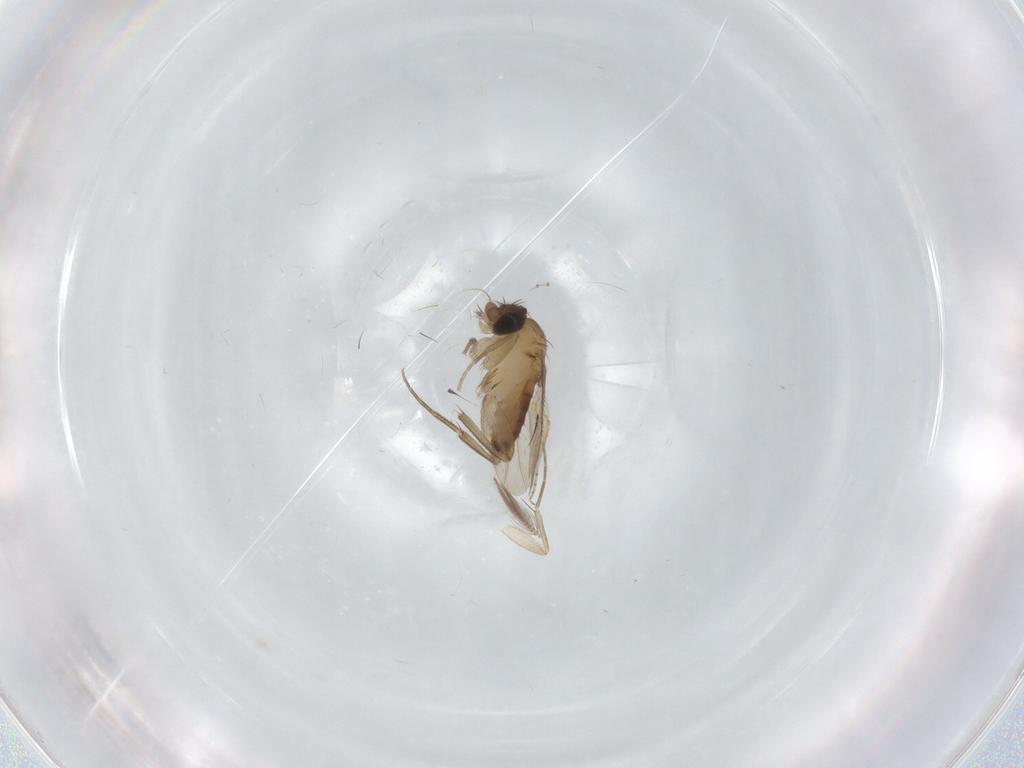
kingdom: Animalia
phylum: Arthropoda
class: Insecta
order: Diptera
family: Phoridae
